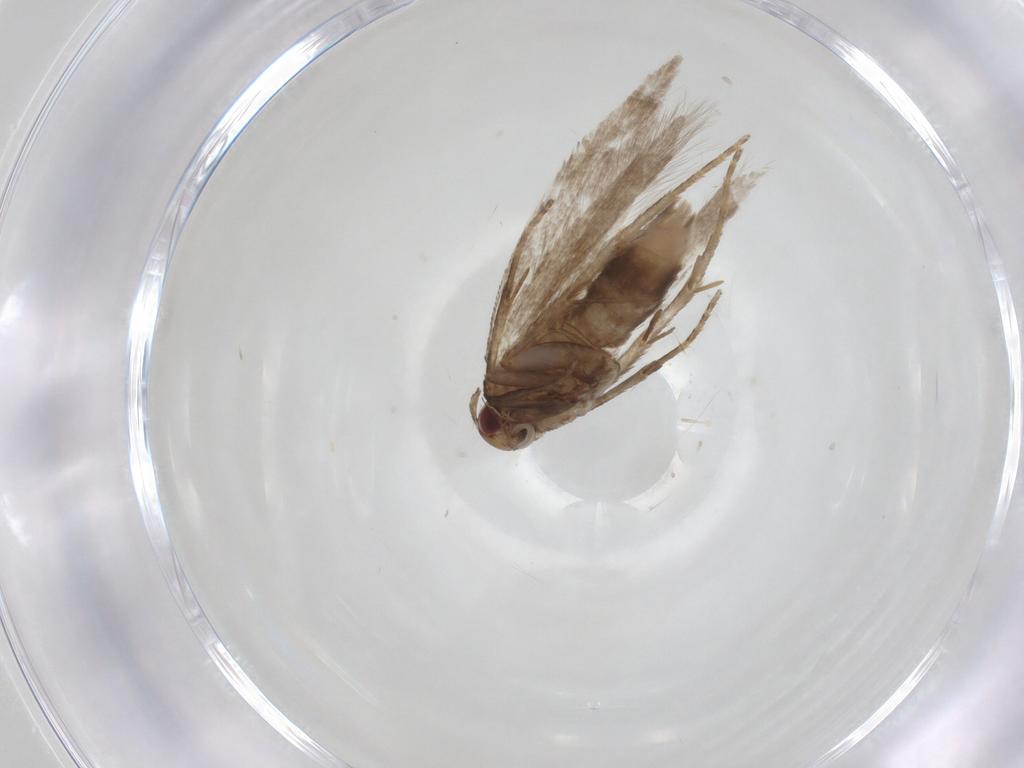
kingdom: Animalia
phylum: Arthropoda
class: Insecta
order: Lepidoptera
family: Gelechiidae
